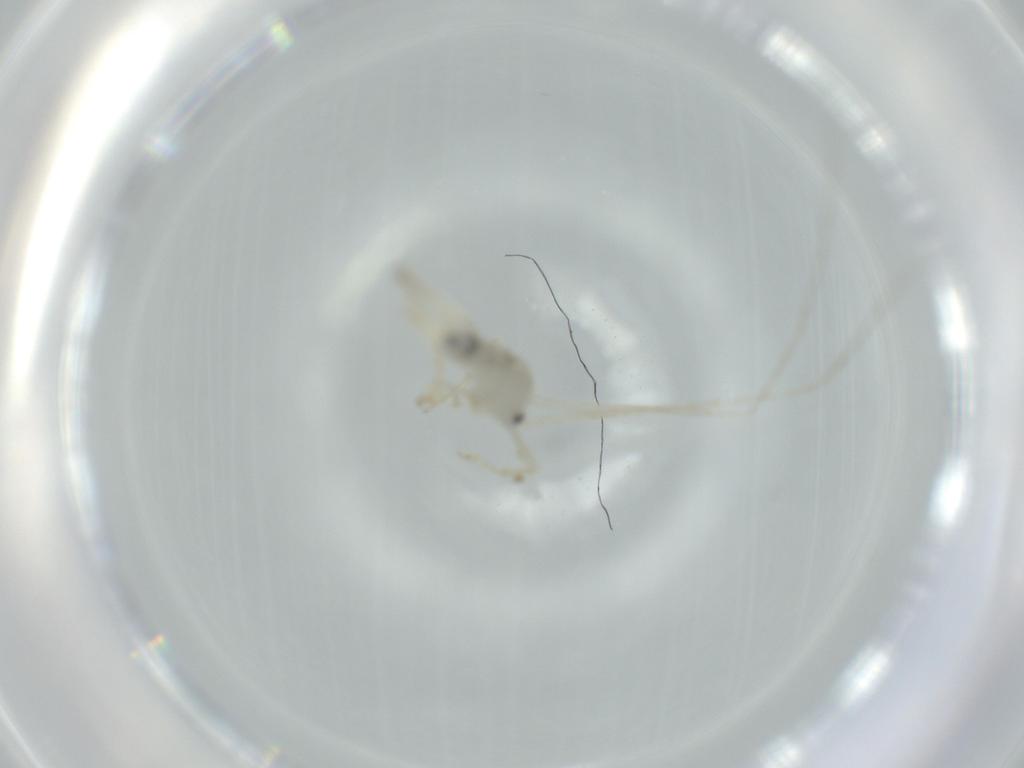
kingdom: Animalia
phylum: Arthropoda
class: Insecta
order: Orthoptera
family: Trigonidiidae
